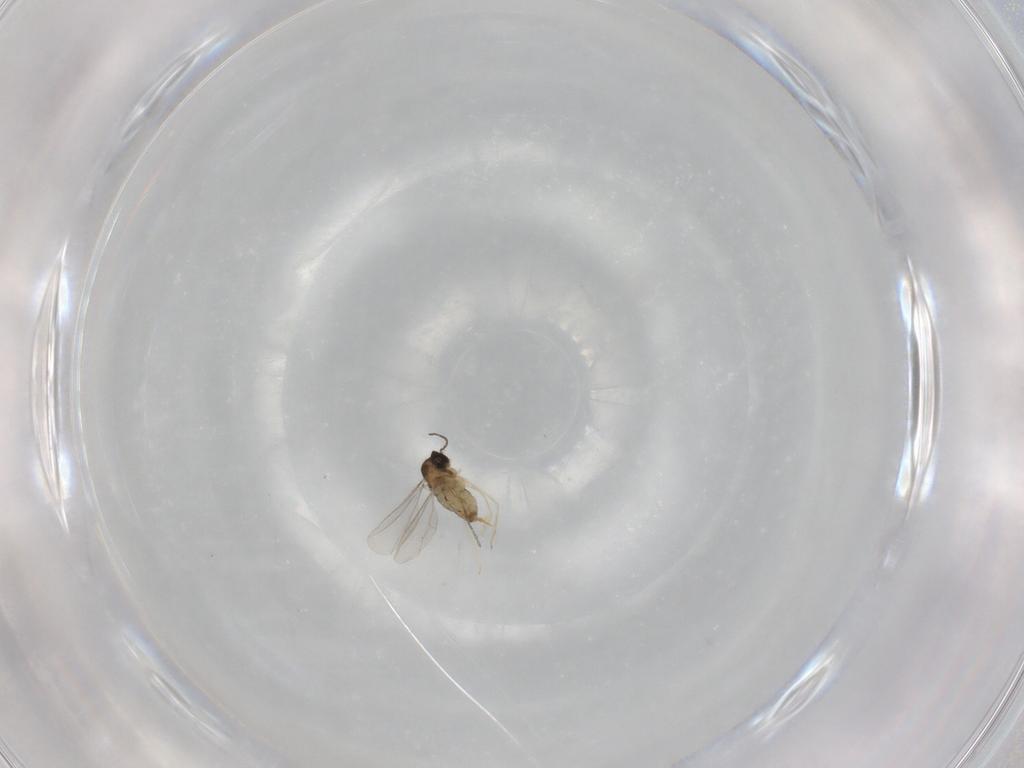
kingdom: Animalia
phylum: Arthropoda
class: Insecta
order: Diptera
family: Cecidomyiidae
